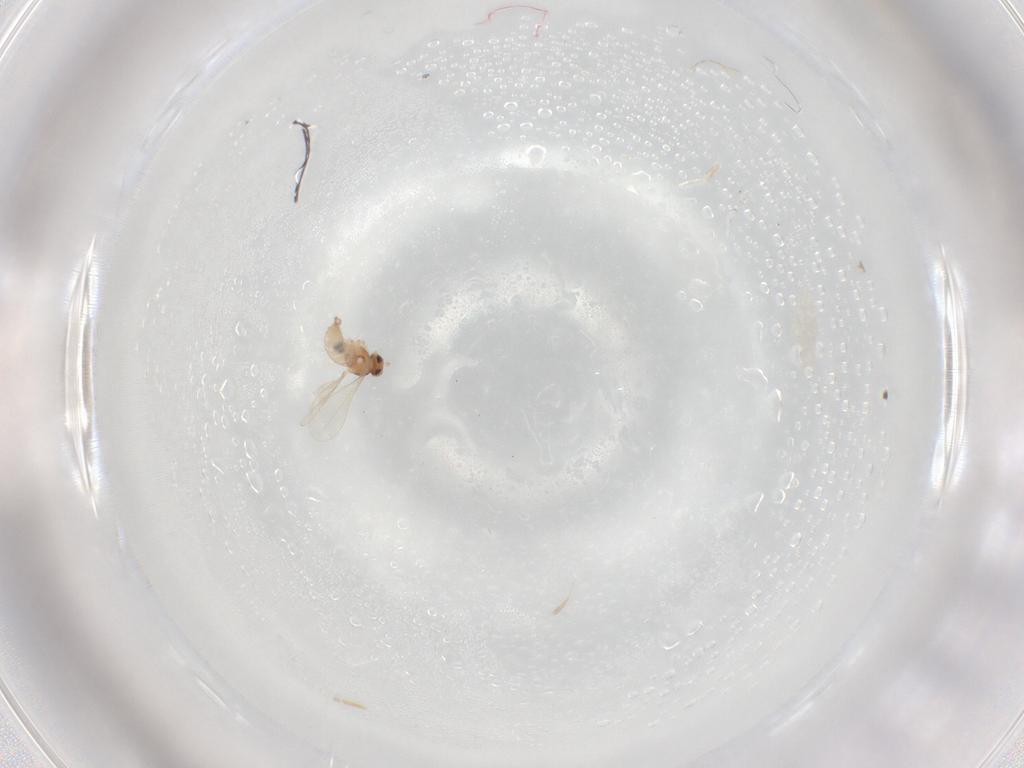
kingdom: Animalia
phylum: Arthropoda
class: Insecta
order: Diptera
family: Cecidomyiidae
